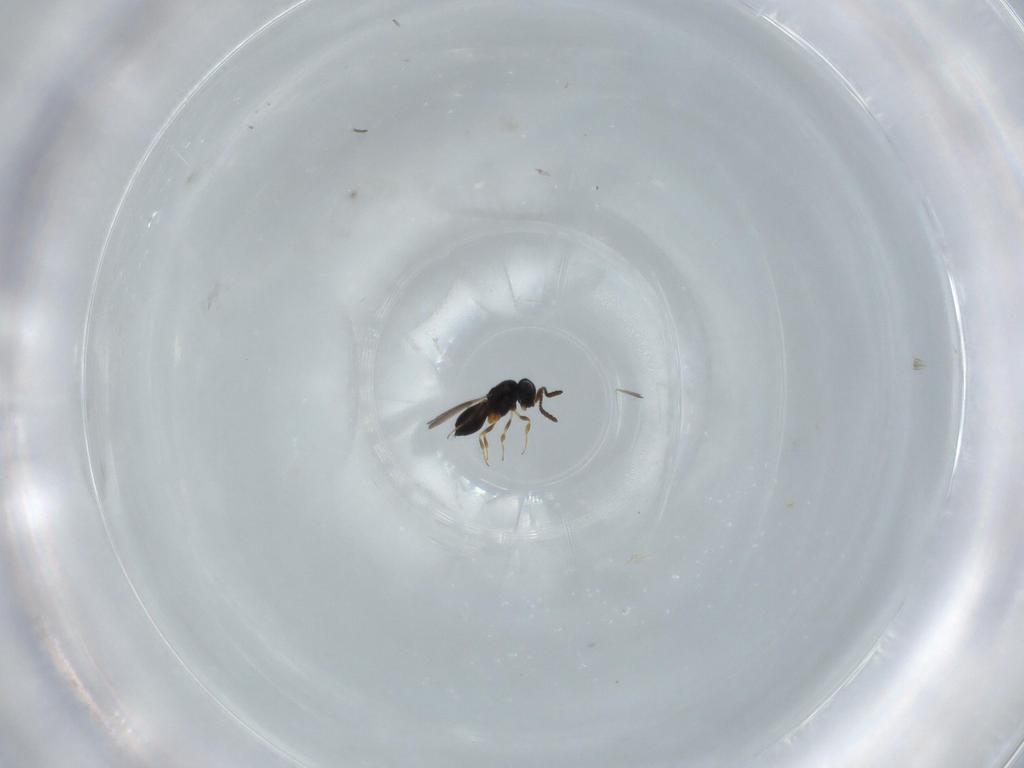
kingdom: Animalia
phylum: Arthropoda
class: Insecta
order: Hymenoptera
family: Scelionidae
